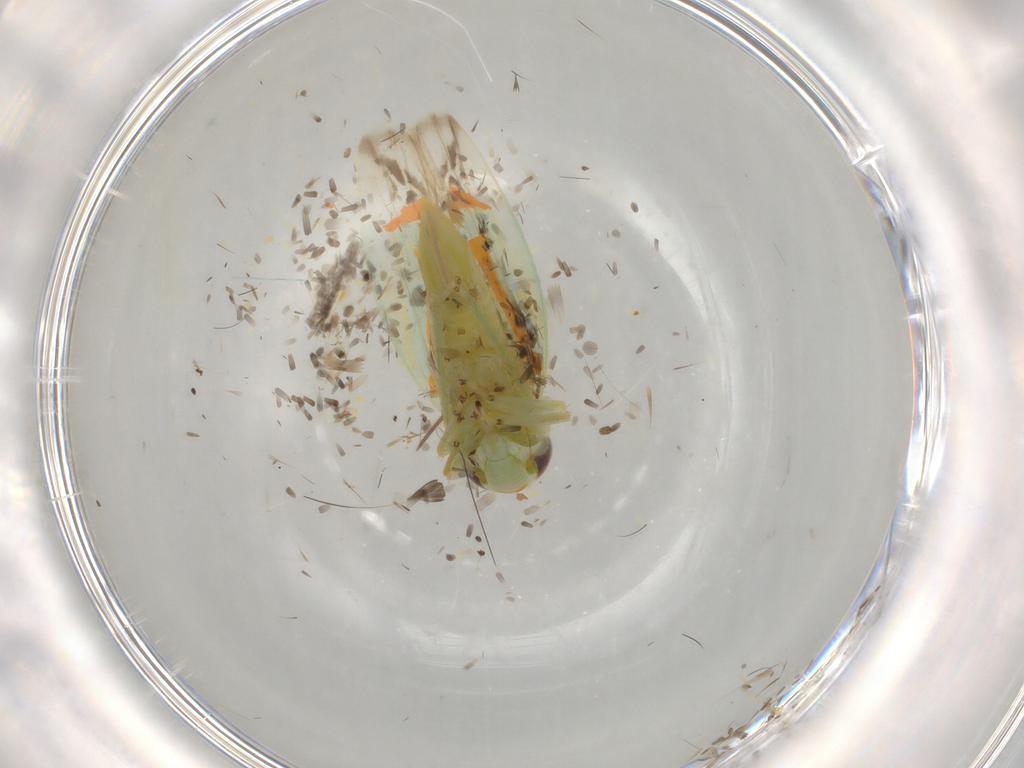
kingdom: Animalia
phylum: Arthropoda
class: Insecta
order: Hemiptera
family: Cicadellidae
